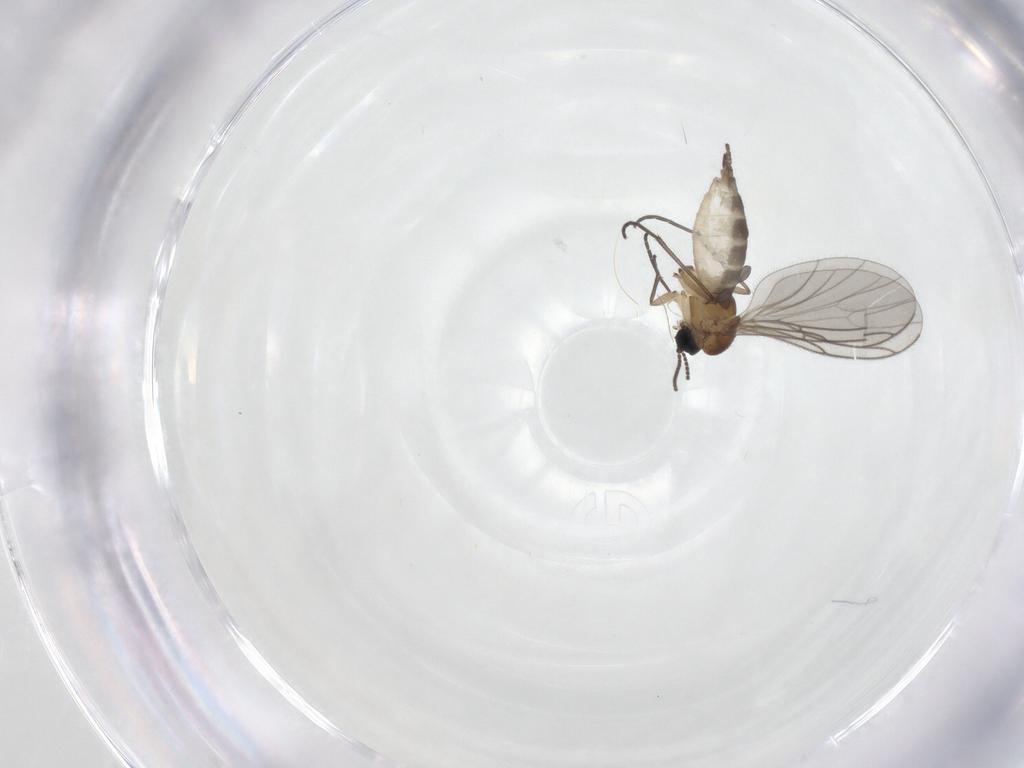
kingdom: Animalia
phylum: Arthropoda
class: Insecta
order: Diptera
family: Sciaridae
